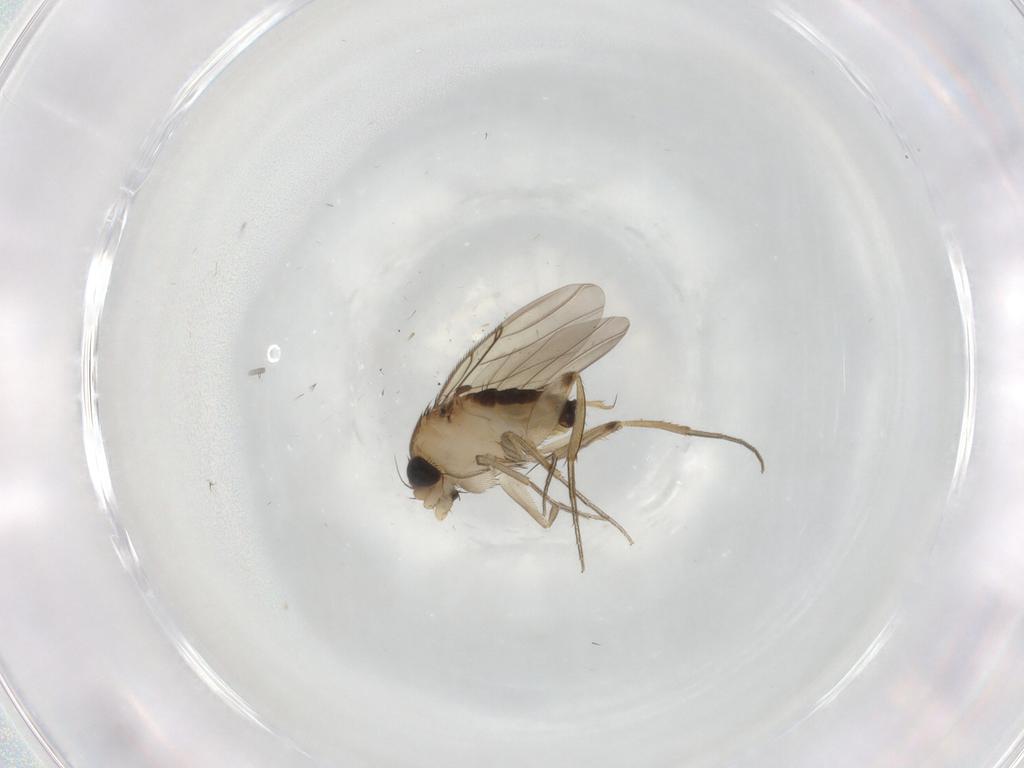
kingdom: Animalia
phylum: Arthropoda
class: Insecta
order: Diptera
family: Phoridae
